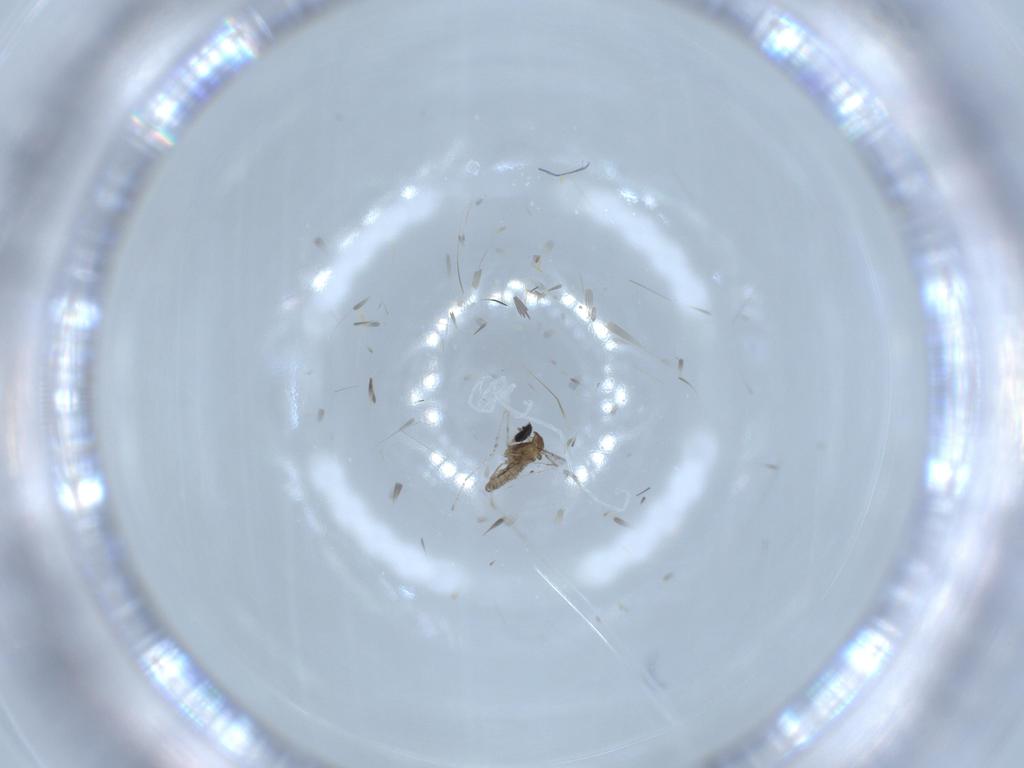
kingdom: Animalia
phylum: Arthropoda
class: Insecta
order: Diptera
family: Cecidomyiidae
